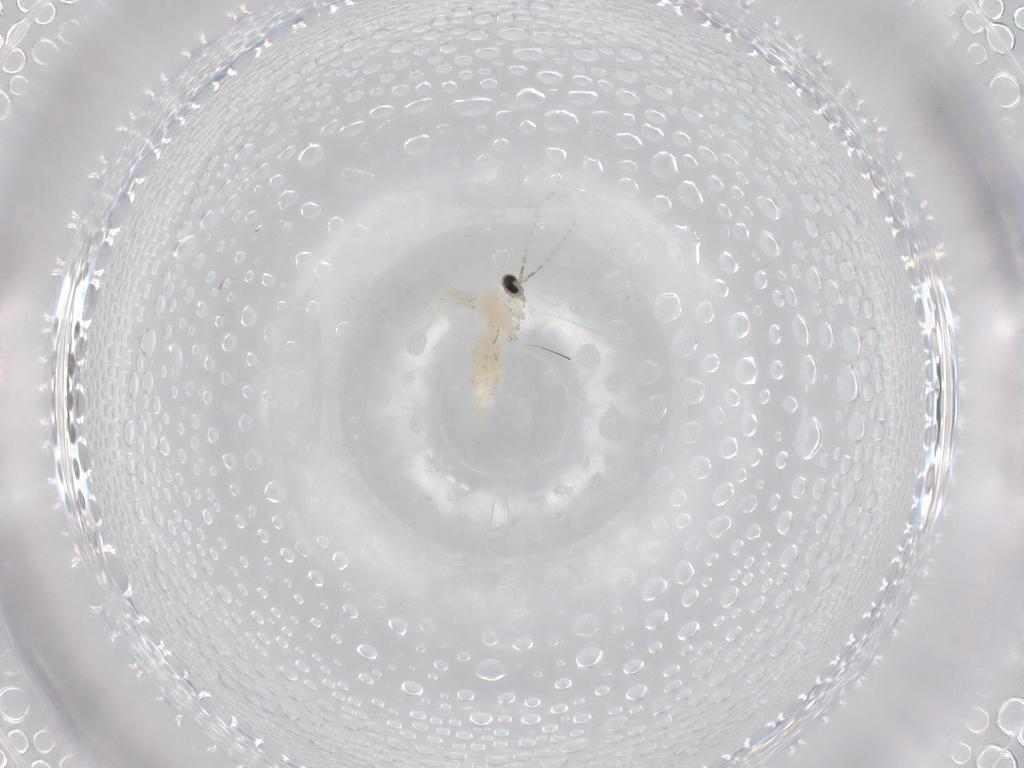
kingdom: Animalia
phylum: Arthropoda
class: Insecta
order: Diptera
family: Dolichopodidae
